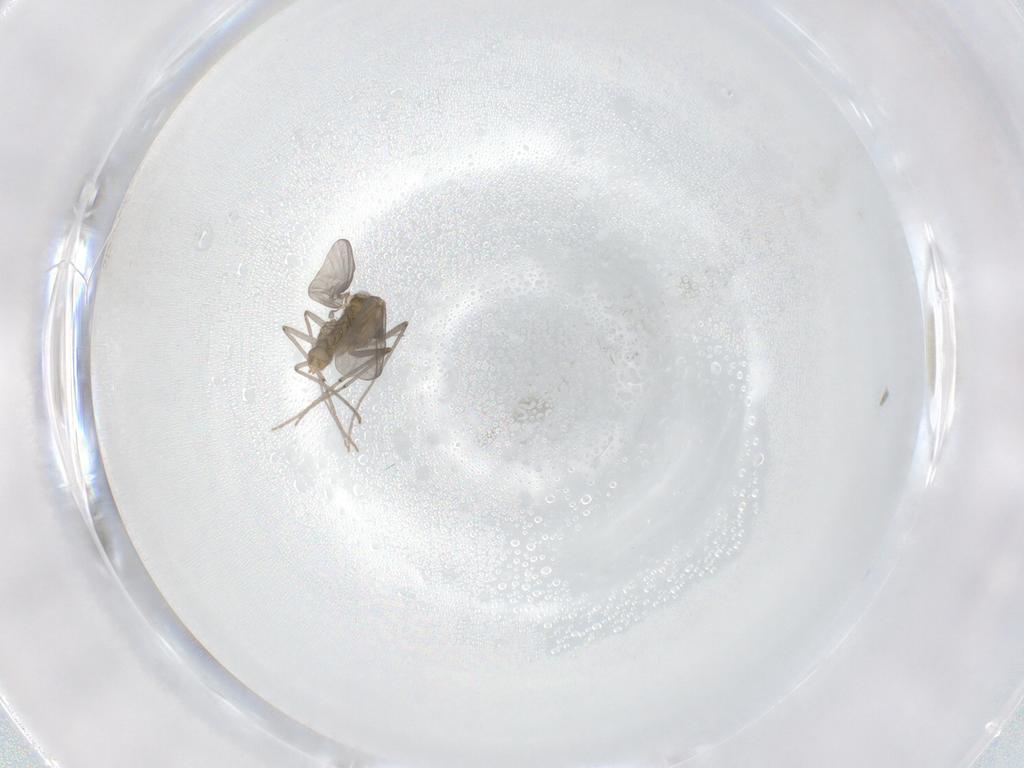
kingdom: Animalia
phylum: Arthropoda
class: Insecta
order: Diptera
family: Chironomidae
